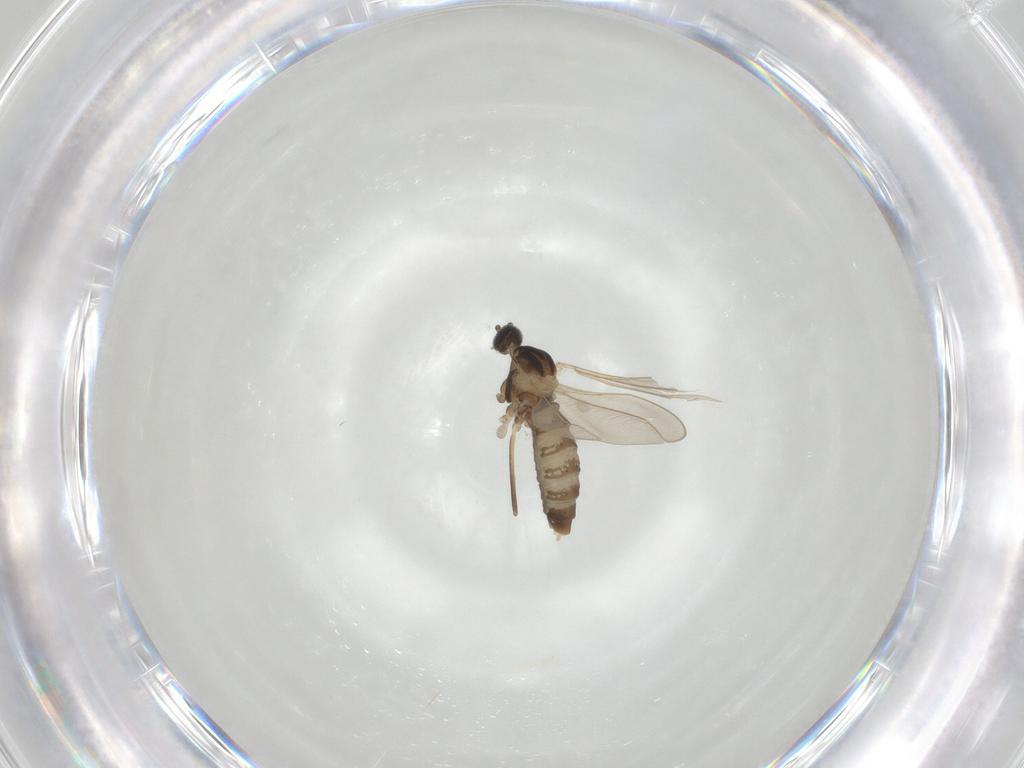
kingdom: Animalia
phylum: Arthropoda
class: Insecta
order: Diptera
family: Cecidomyiidae
